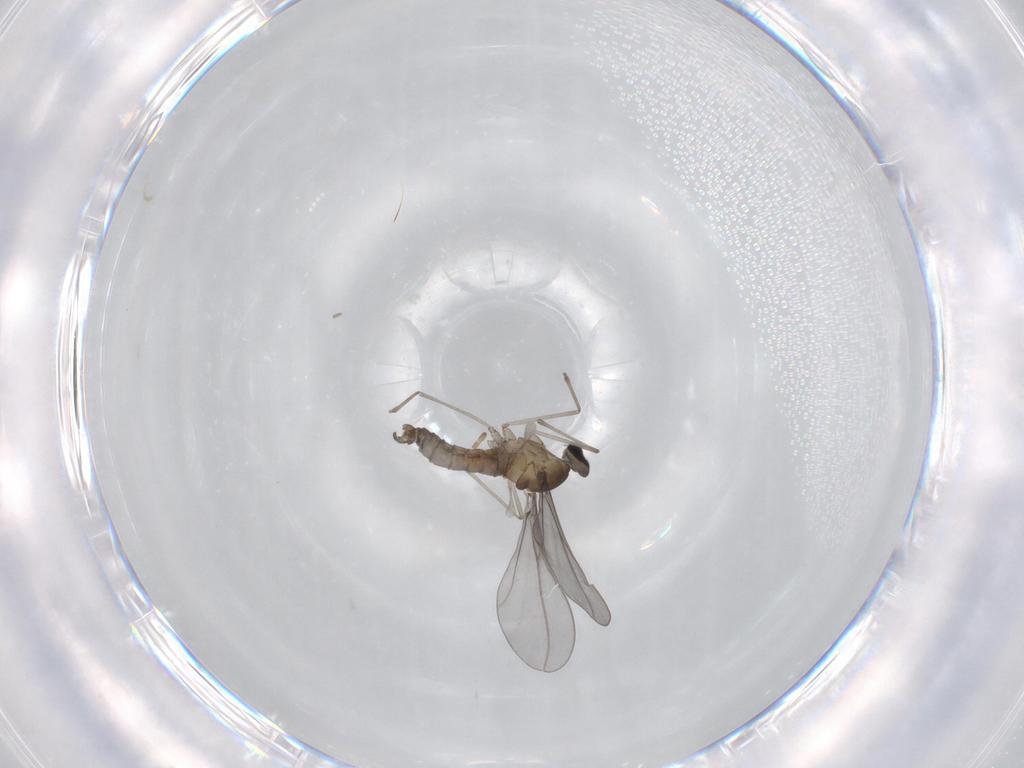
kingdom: Animalia
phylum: Arthropoda
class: Insecta
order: Diptera
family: Cecidomyiidae
